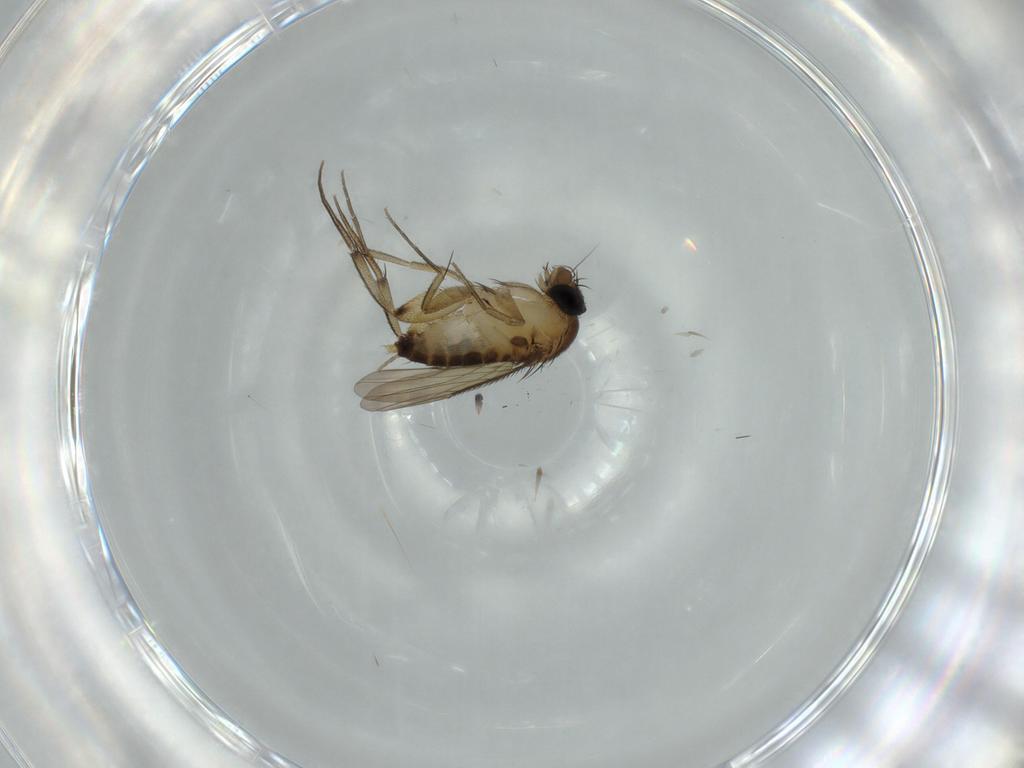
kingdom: Animalia
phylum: Arthropoda
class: Insecta
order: Diptera
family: Phoridae
